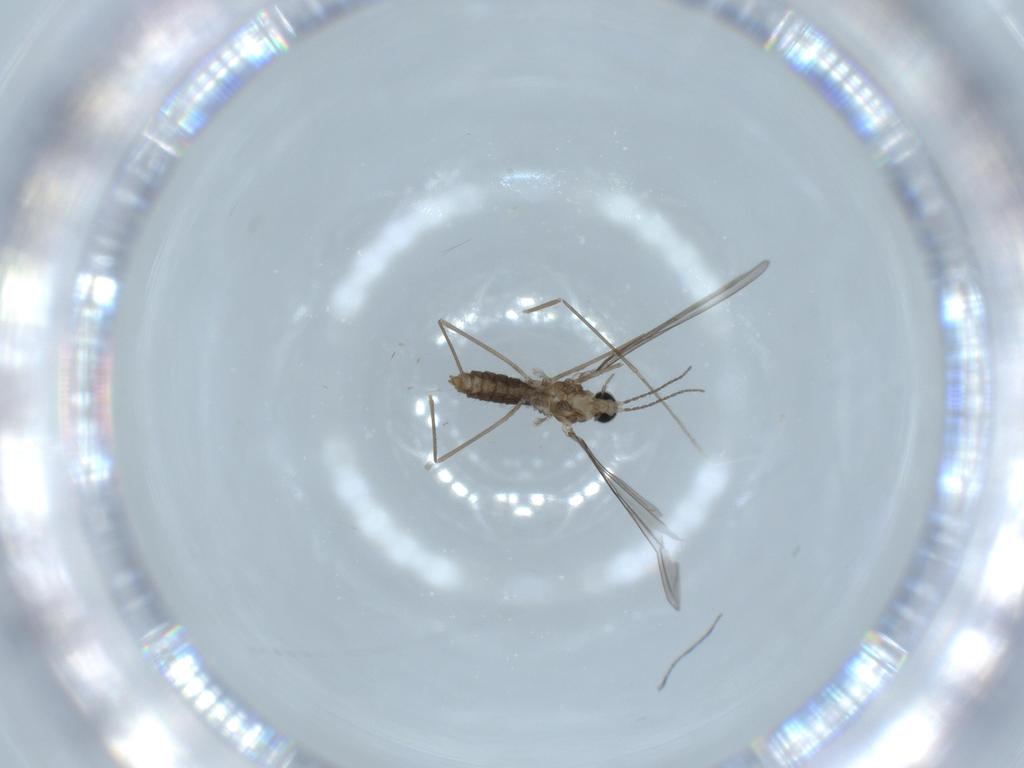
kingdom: Animalia
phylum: Arthropoda
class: Insecta
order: Diptera
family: Cecidomyiidae
